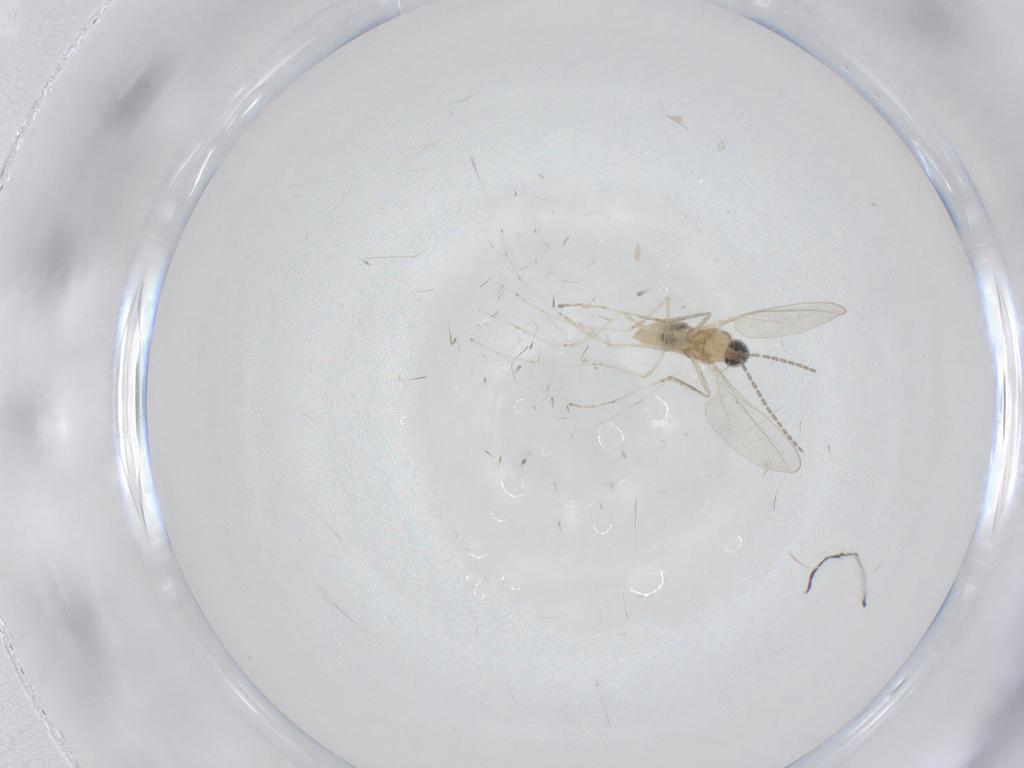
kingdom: Animalia
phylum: Arthropoda
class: Insecta
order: Diptera
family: Cecidomyiidae
